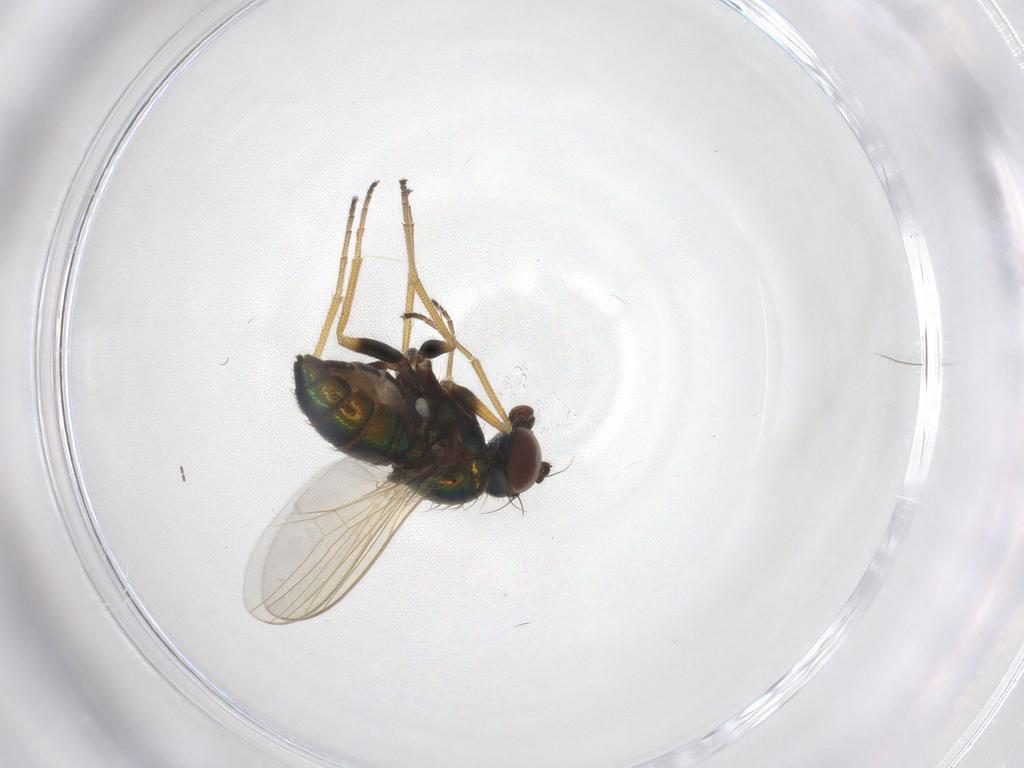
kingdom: Animalia
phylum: Arthropoda
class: Insecta
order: Diptera
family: Dolichopodidae
